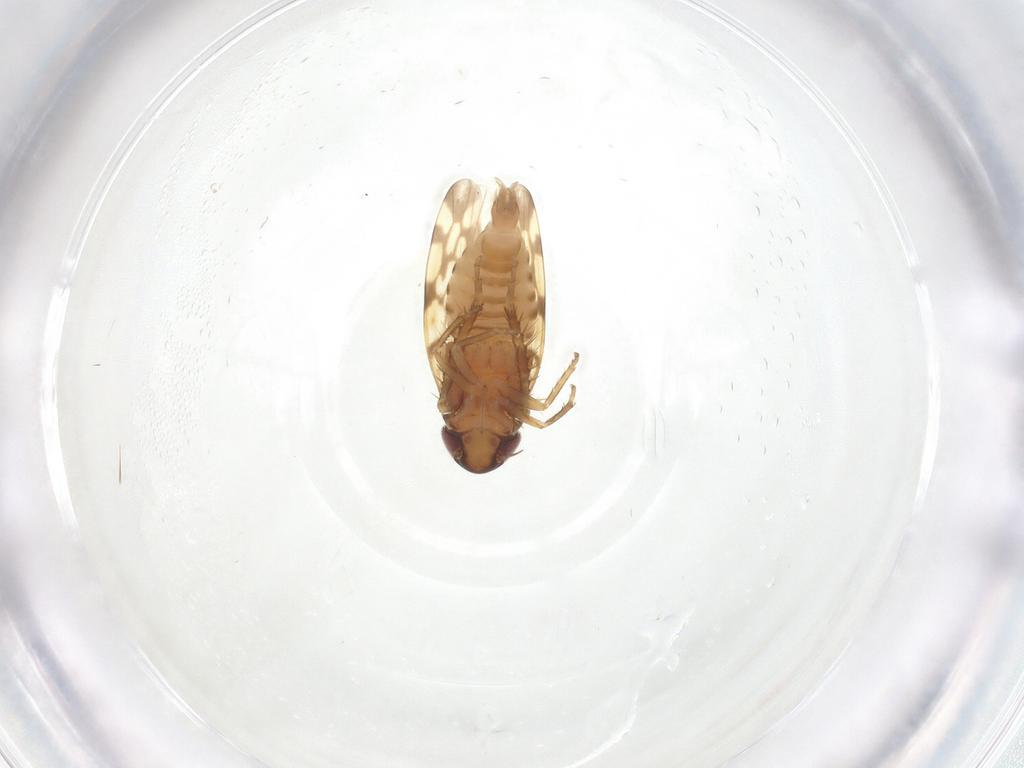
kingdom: Animalia
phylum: Arthropoda
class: Insecta
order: Hemiptera
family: Cicadellidae
